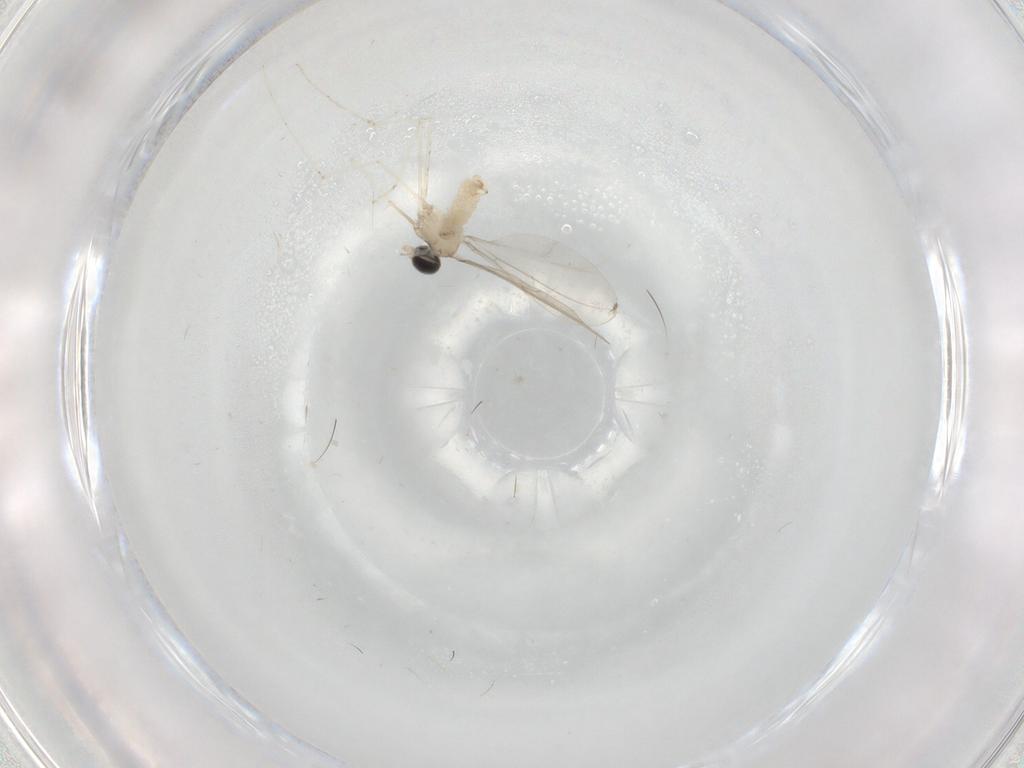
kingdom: Animalia
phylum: Arthropoda
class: Insecta
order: Diptera
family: Cecidomyiidae
